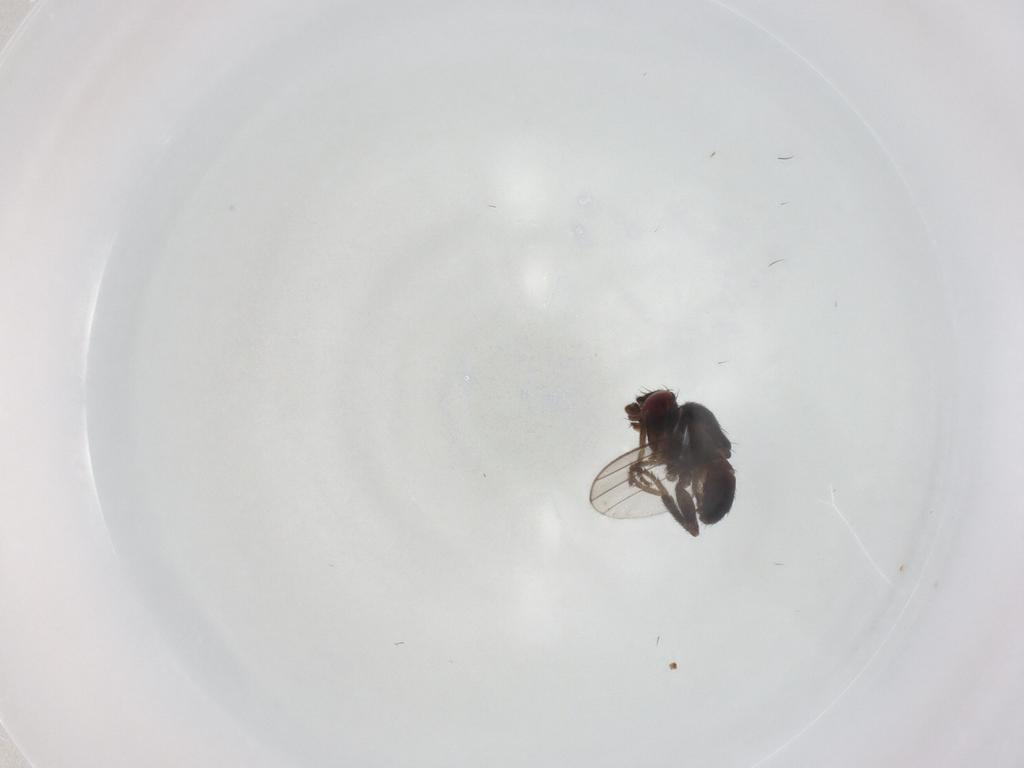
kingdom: Animalia
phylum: Arthropoda
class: Insecta
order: Diptera
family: Milichiidae
